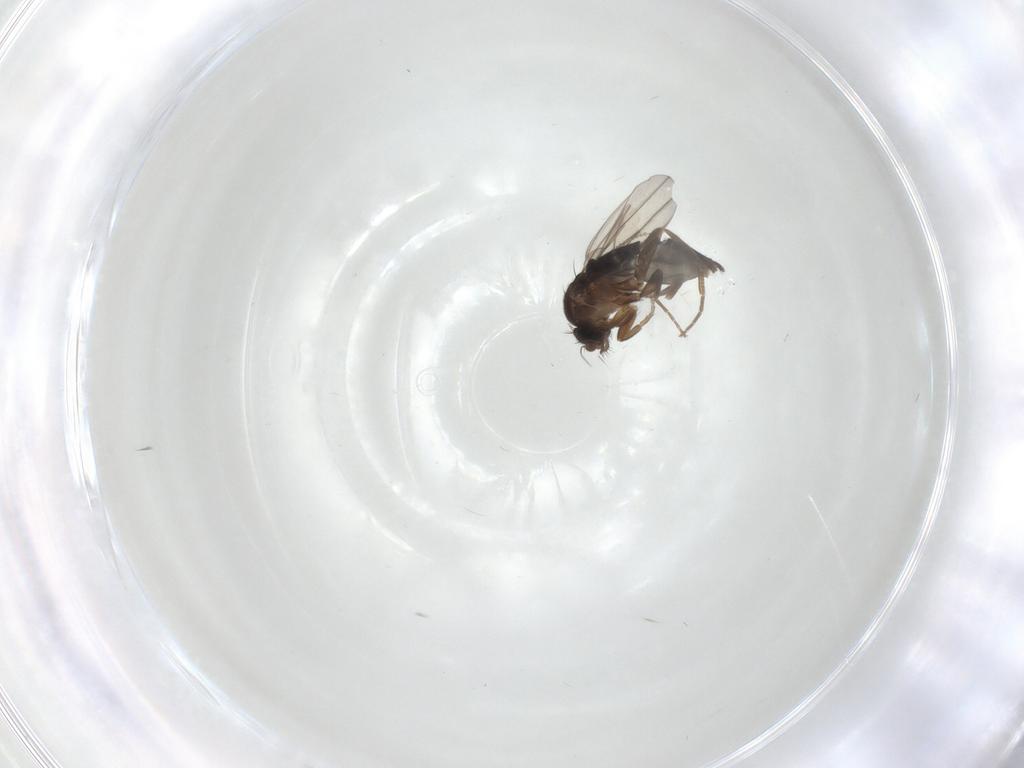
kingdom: Animalia
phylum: Arthropoda
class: Insecta
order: Diptera
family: Cecidomyiidae
